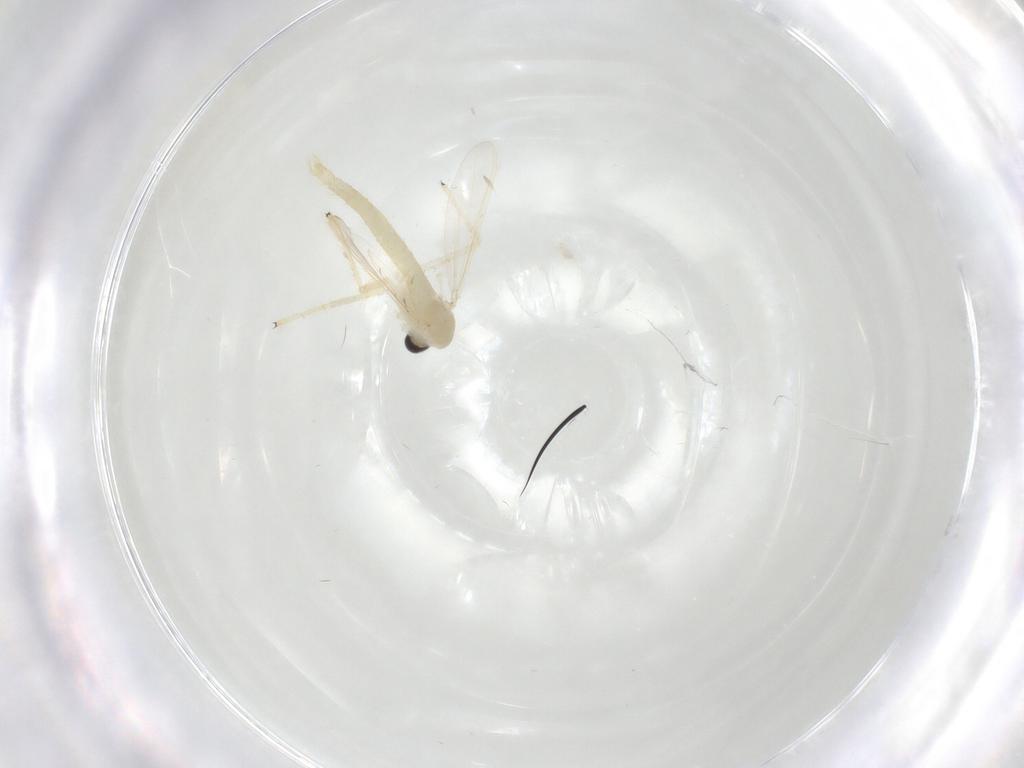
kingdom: Animalia
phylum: Arthropoda
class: Insecta
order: Diptera
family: Chironomidae
